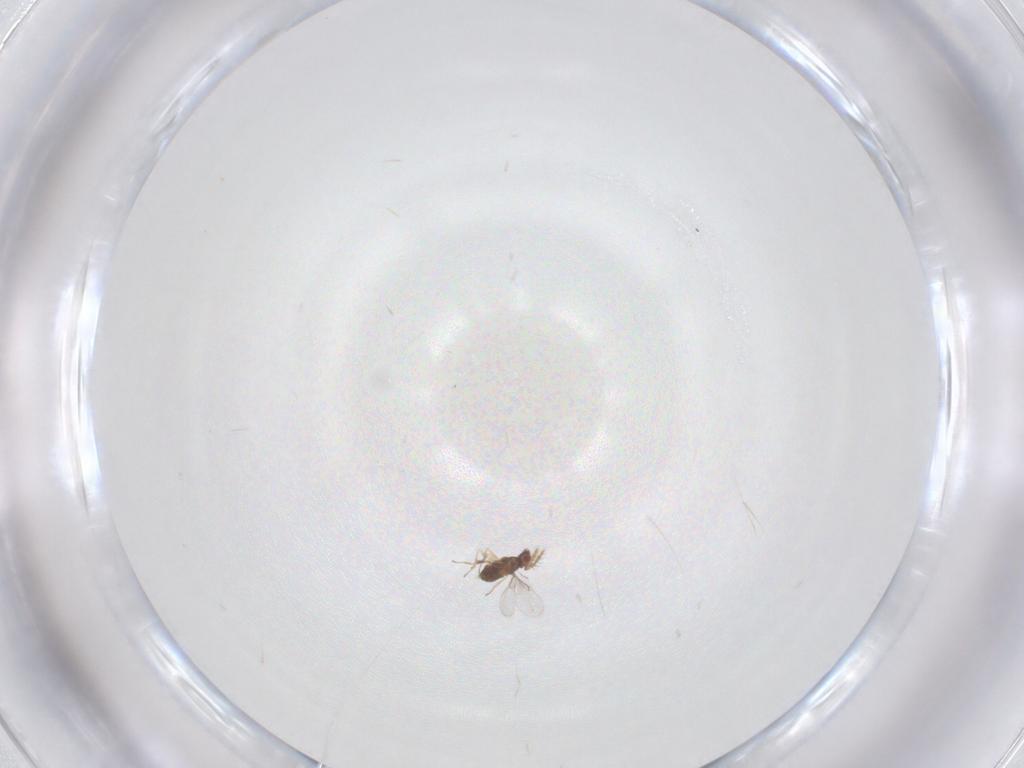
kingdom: Animalia
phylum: Arthropoda
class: Insecta
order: Hymenoptera
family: Trichogrammatidae
